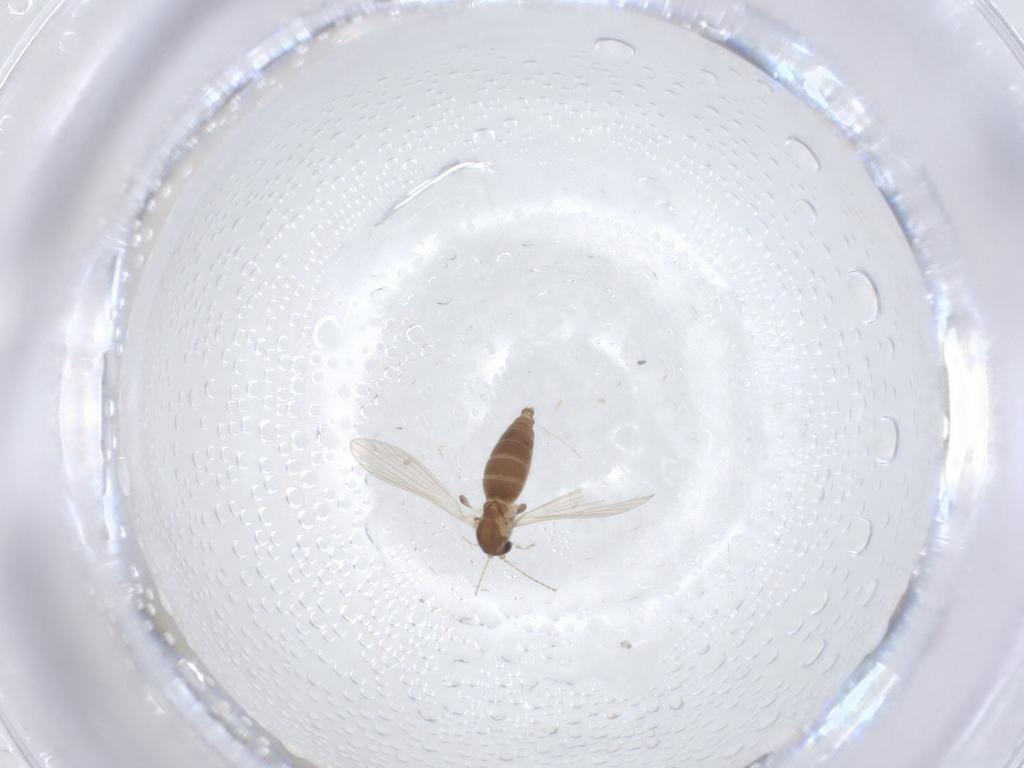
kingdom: Animalia
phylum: Arthropoda
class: Insecta
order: Diptera
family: Psychodidae
